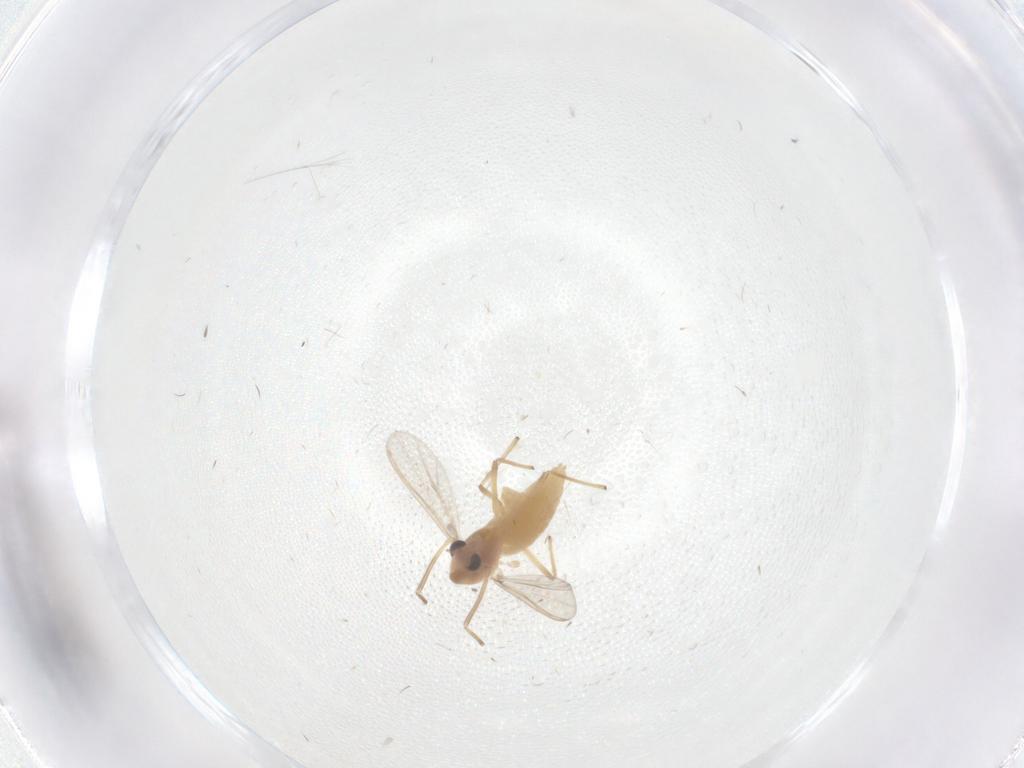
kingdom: Animalia
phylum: Arthropoda
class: Insecta
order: Diptera
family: Chironomidae
